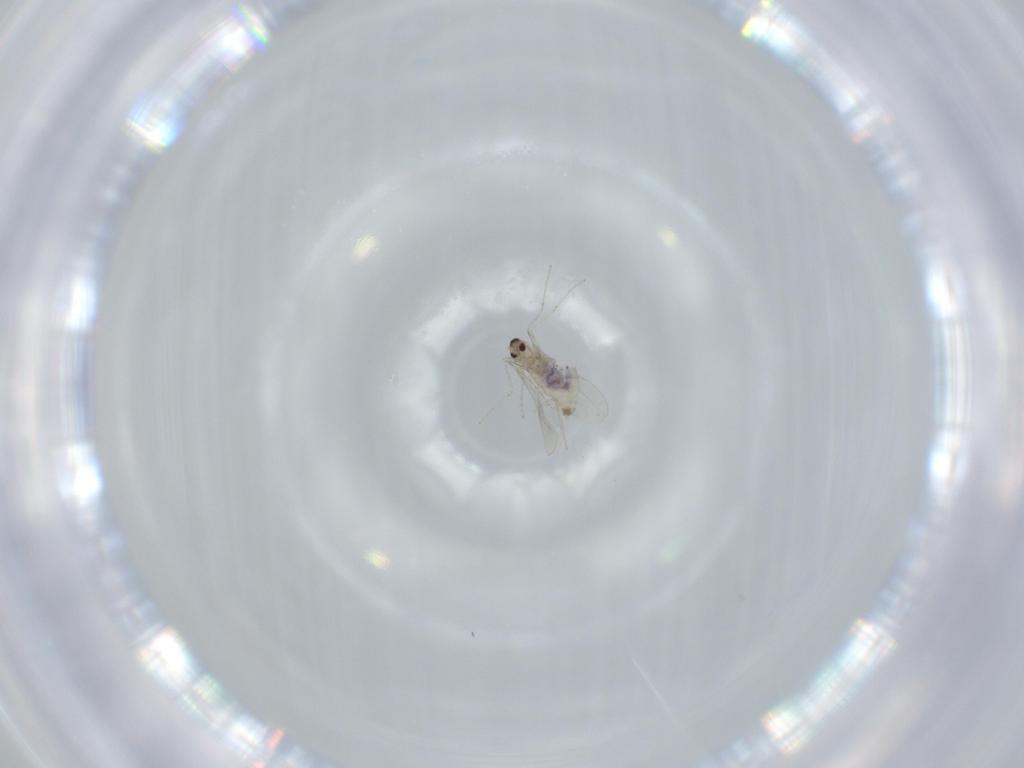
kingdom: Animalia
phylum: Arthropoda
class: Insecta
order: Diptera
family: Cecidomyiidae
